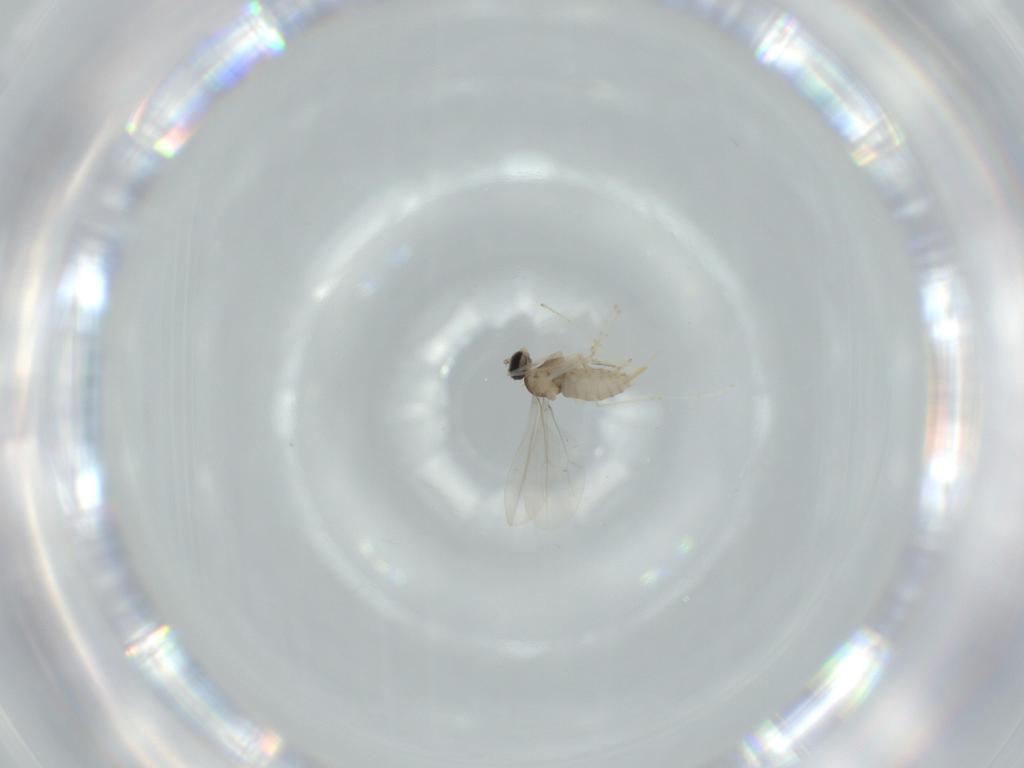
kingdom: Animalia
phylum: Arthropoda
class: Insecta
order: Diptera
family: Cecidomyiidae
